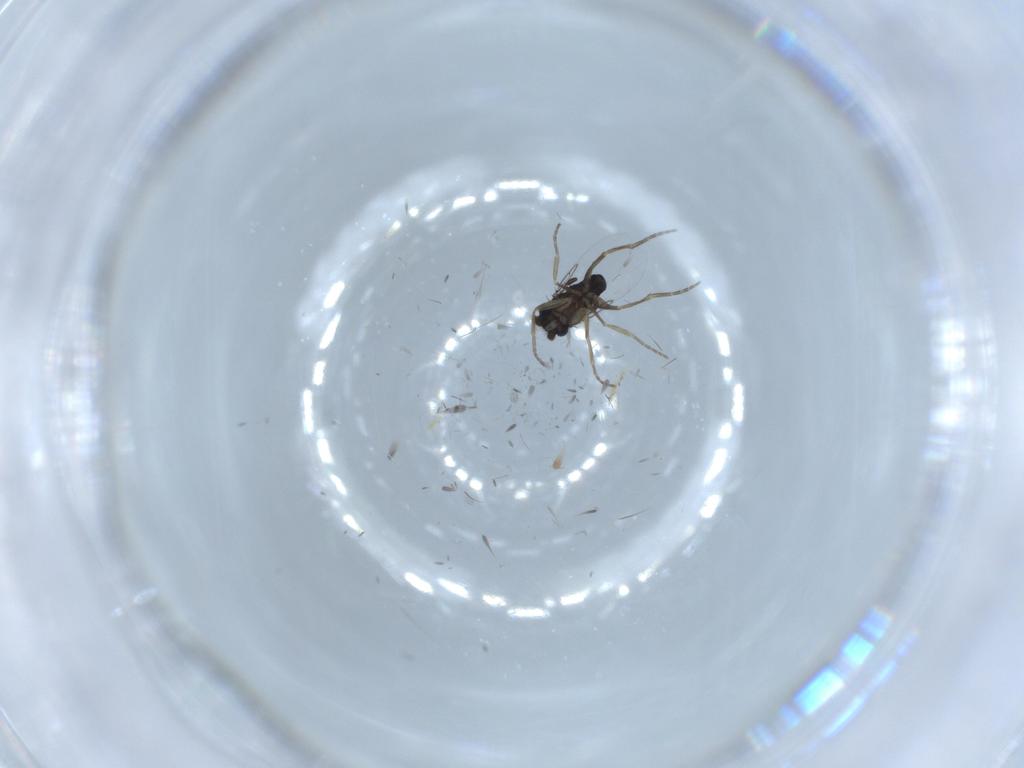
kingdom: Animalia
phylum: Arthropoda
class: Insecta
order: Diptera
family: Phoridae
